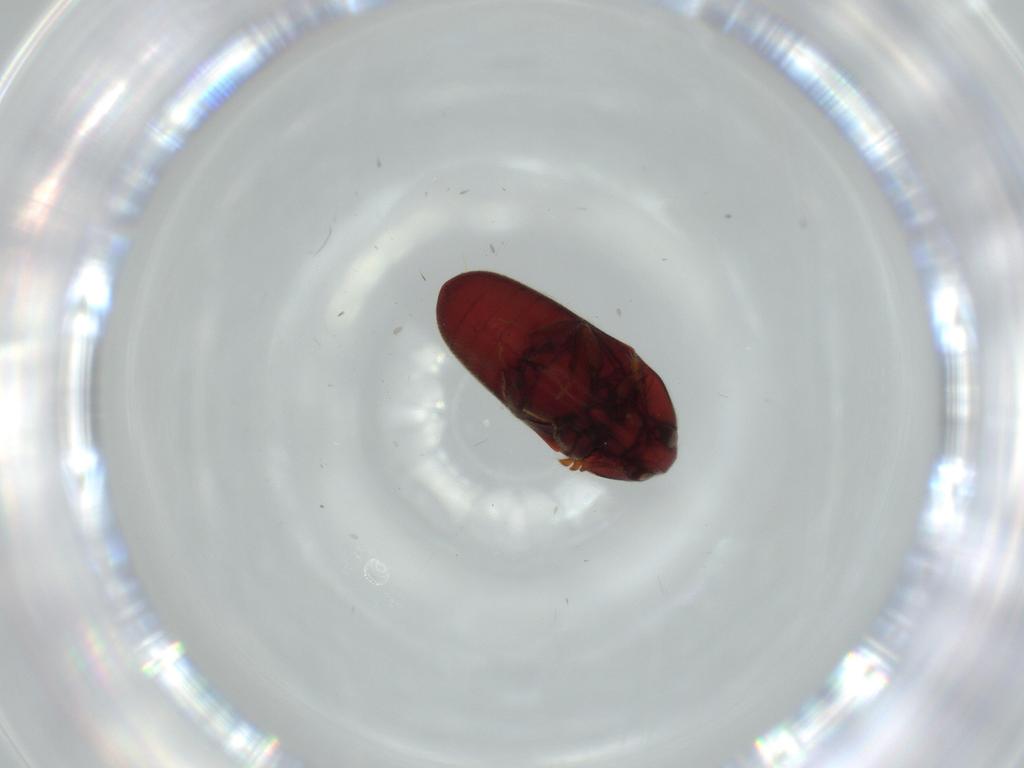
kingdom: Animalia
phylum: Arthropoda
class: Insecta
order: Coleoptera
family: Throscidae
